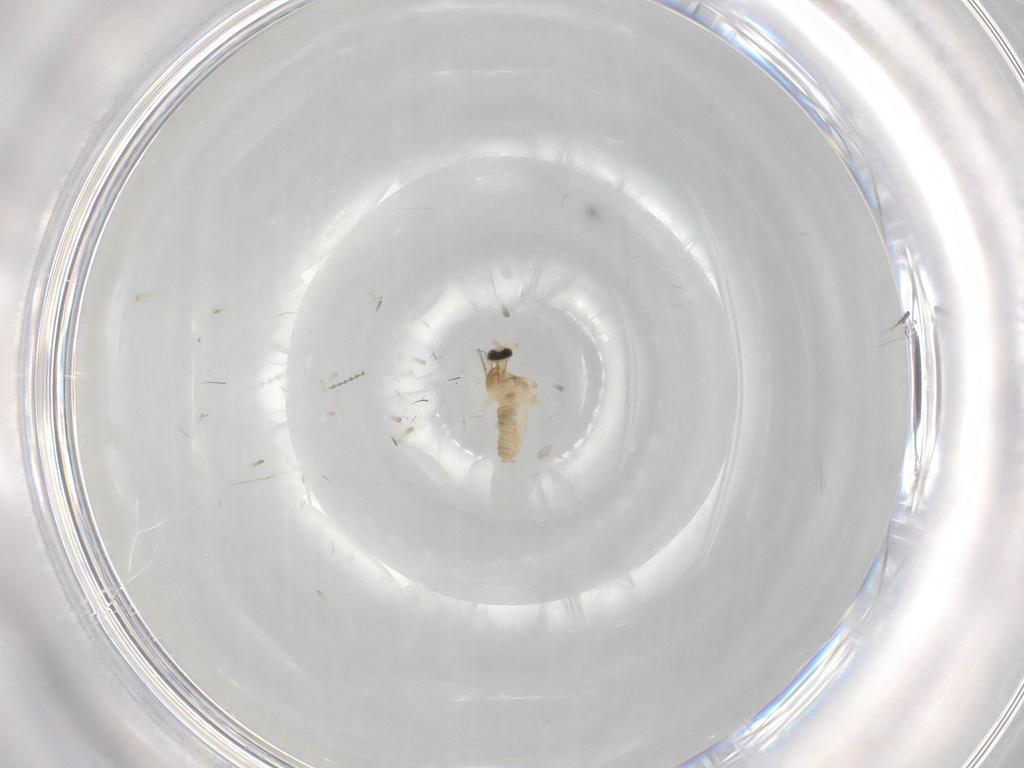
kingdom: Animalia
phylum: Arthropoda
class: Insecta
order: Diptera
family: Cecidomyiidae
